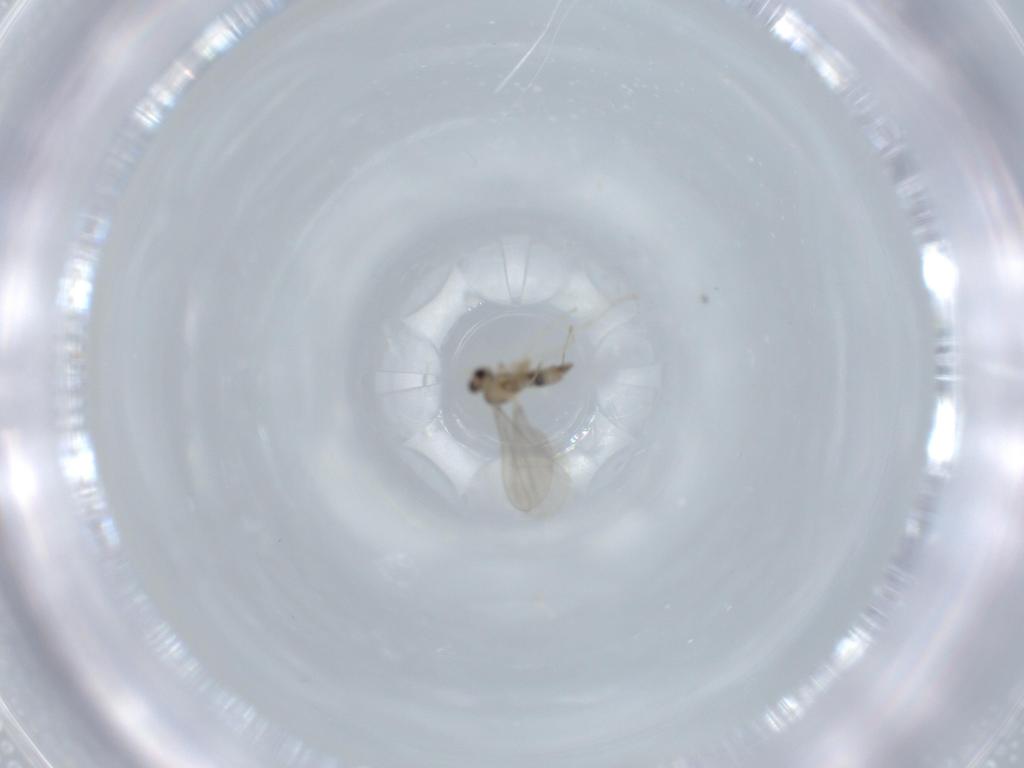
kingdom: Animalia
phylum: Arthropoda
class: Insecta
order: Diptera
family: Cecidomyiidae
